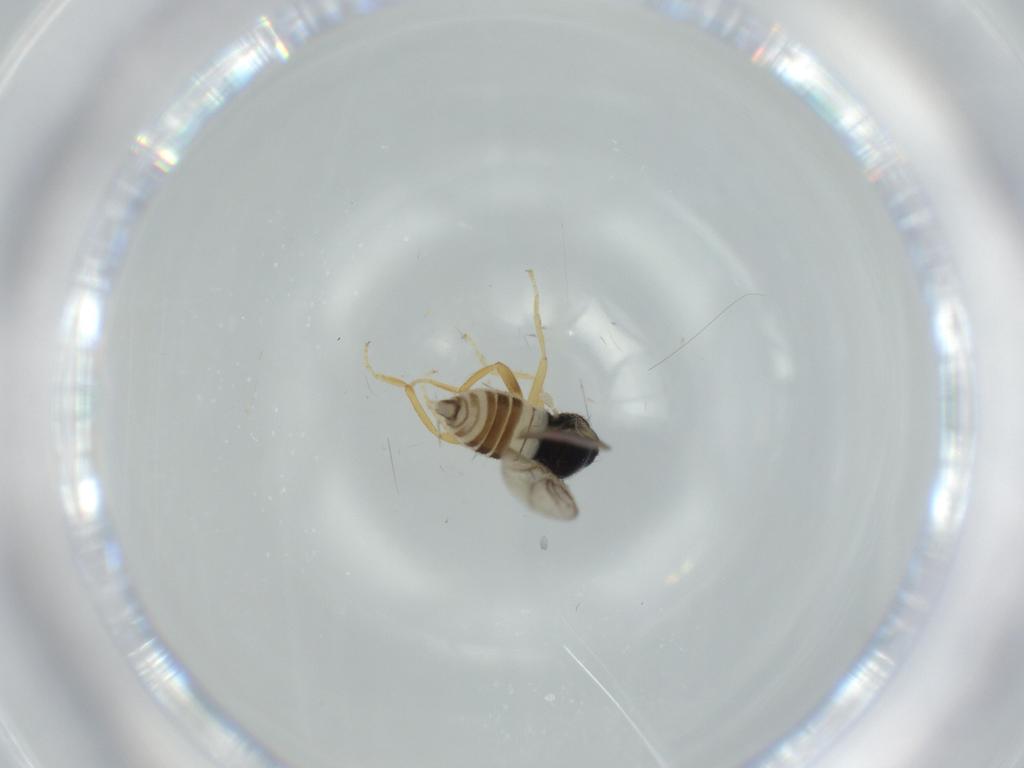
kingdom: Animalia
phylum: Arthropoda
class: Insecta
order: Diptera
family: Hybotidae
